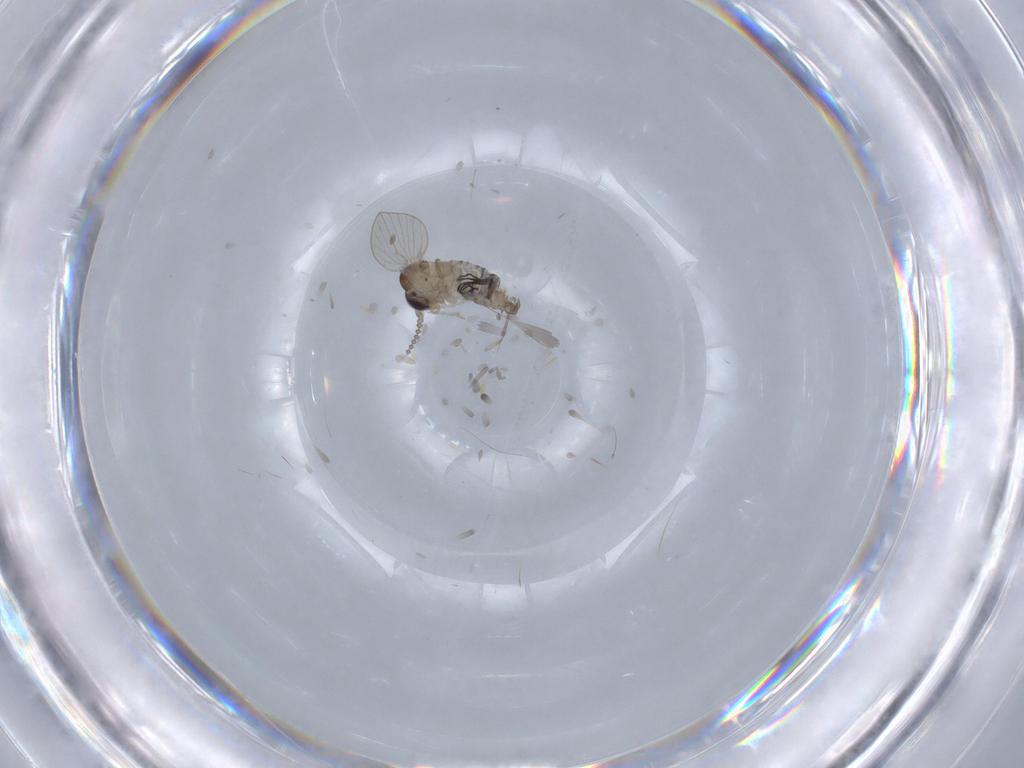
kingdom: Animalia
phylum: Arthropoda
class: Insecta
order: Diptera
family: Psychodidae
